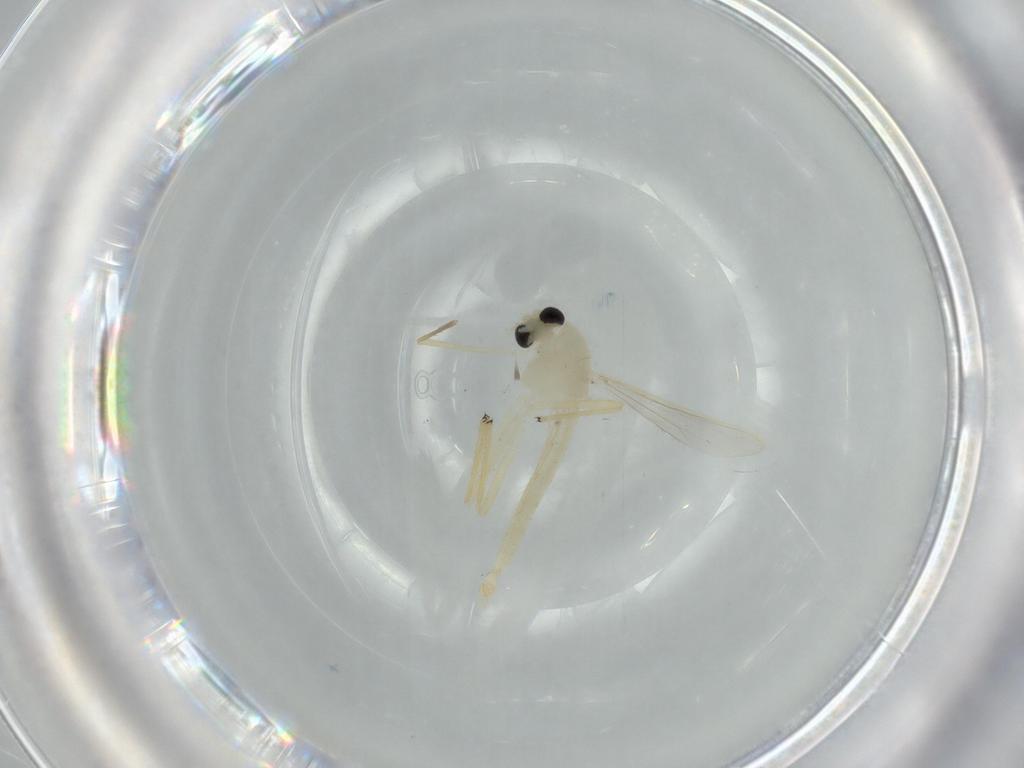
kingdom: Animalia
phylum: Arthropoda
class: Insecta
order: Diptera
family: Chironomidae
